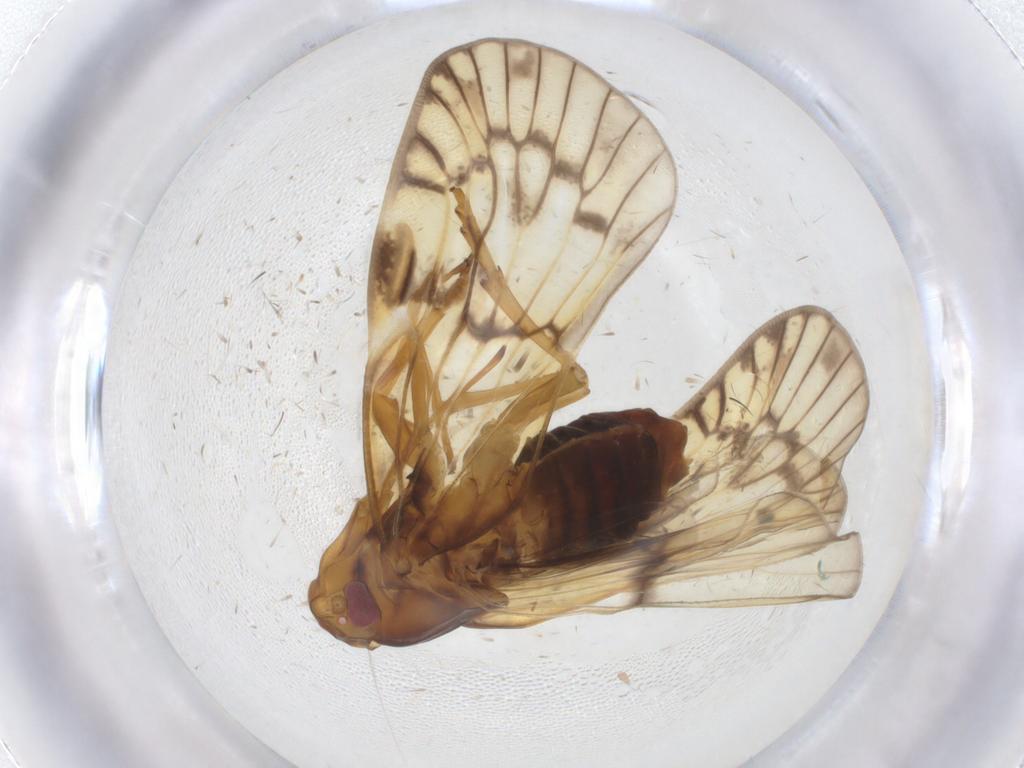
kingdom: Animalia
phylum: Arthropoda
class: Insecta
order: Hemiptera
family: Cixiidae
